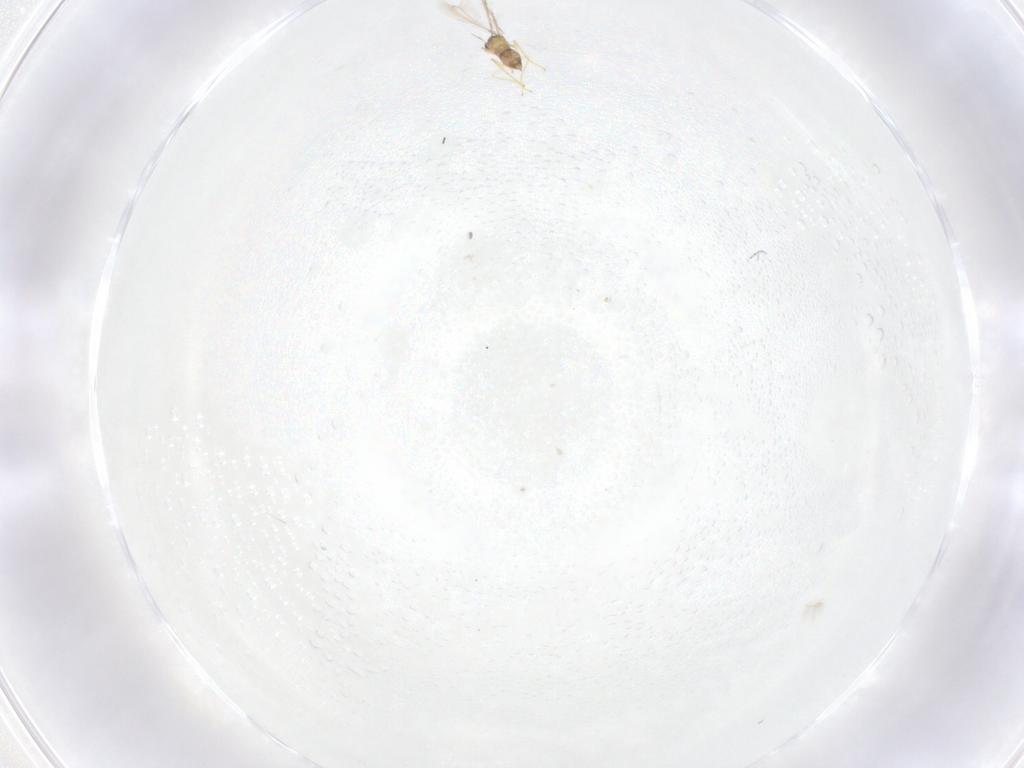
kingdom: Animalia
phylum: Arthropoda
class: Insecta
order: Hymenoptera
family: Mymaridae
